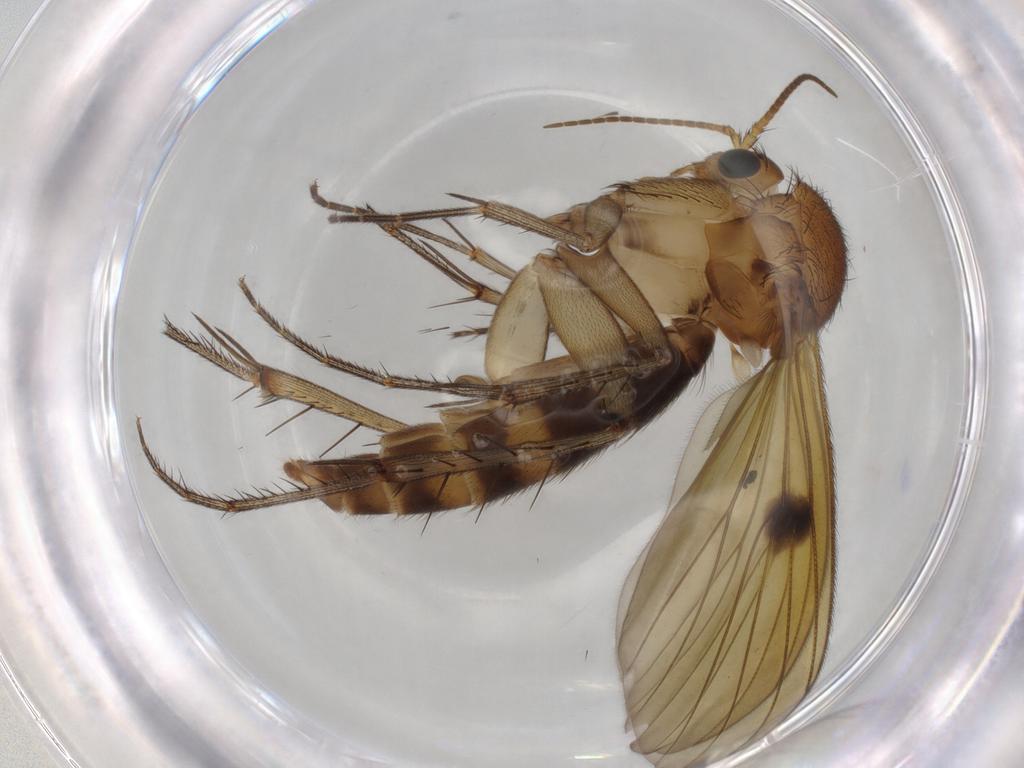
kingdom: Animalia
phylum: Arthropoda
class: Insecta
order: Diptera
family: Mycetophilidae
